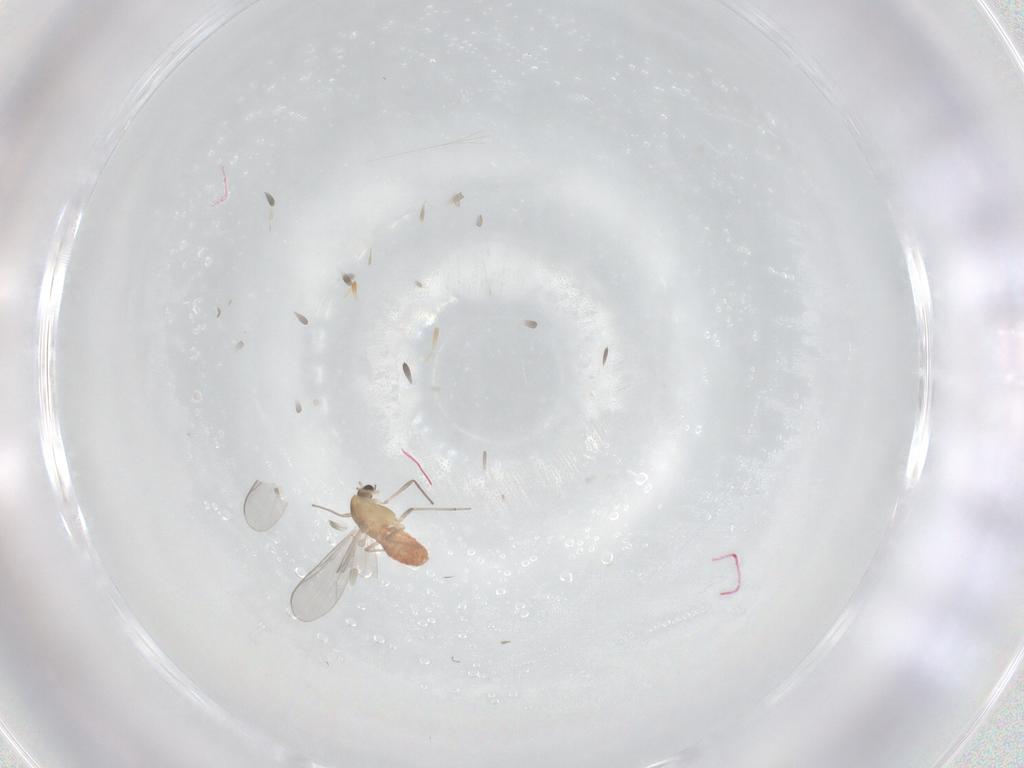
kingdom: Animalia
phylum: Arthropoda
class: Insecta
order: Diptera
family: Chironomidae
